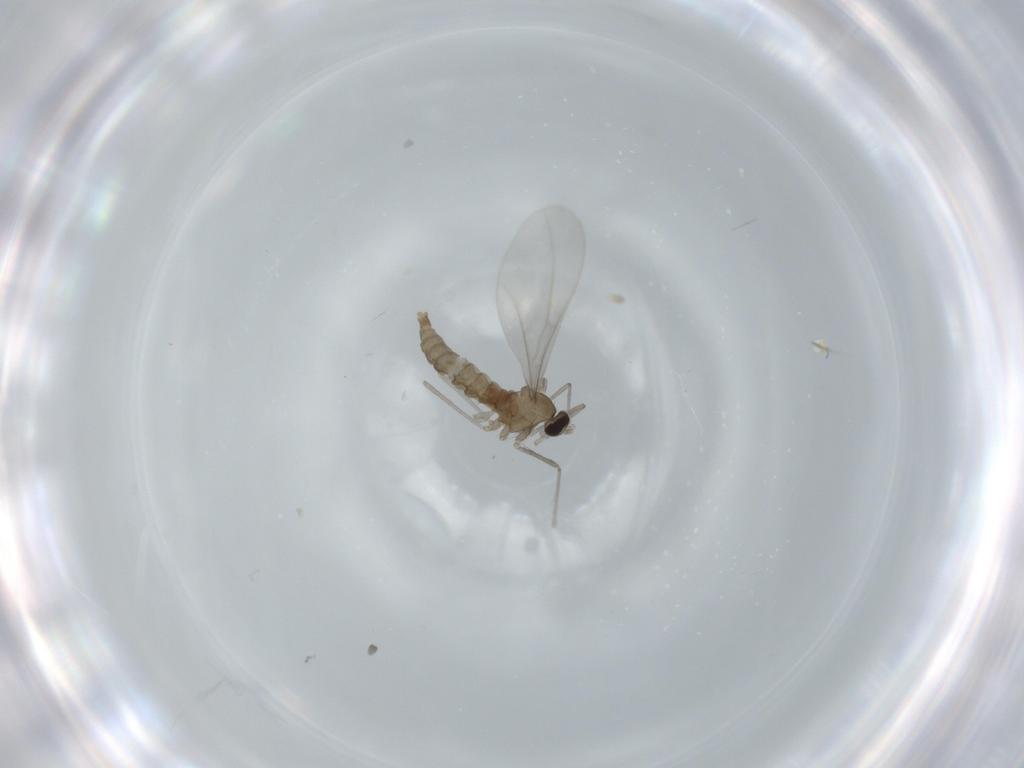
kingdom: Animalia
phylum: Arthropoda
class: Insecta
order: Diptera
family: Cecidomyiidae
